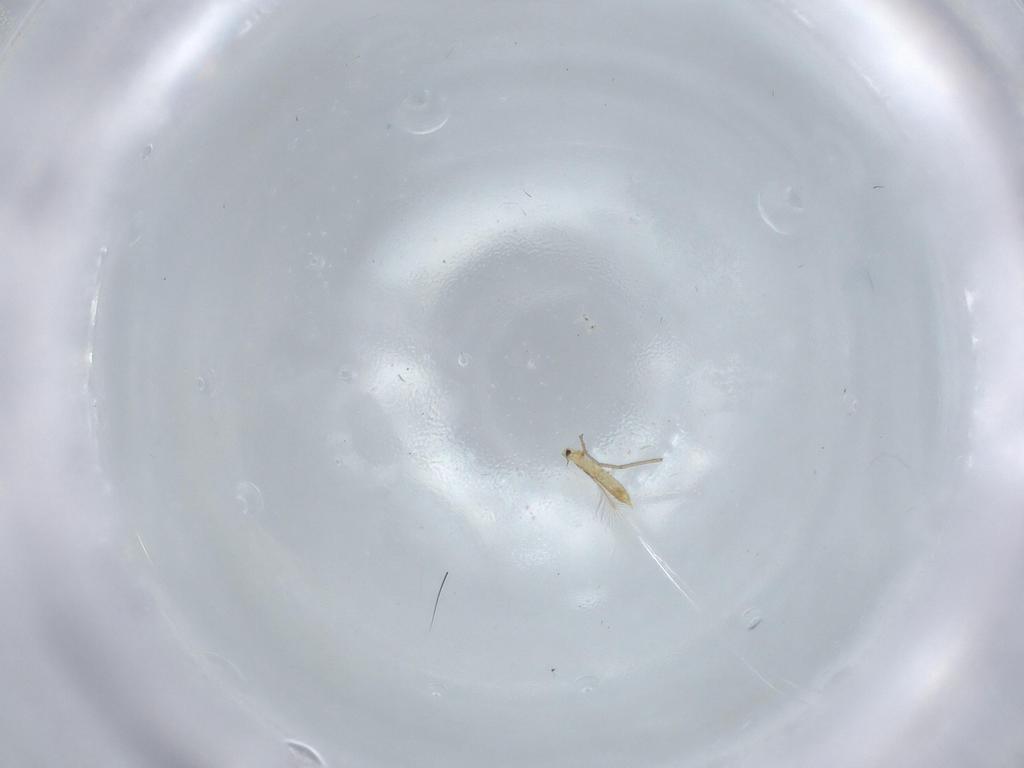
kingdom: Animalia
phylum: Arthropoda
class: Insecta
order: Thysanoptera
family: Phlaeothripidae
